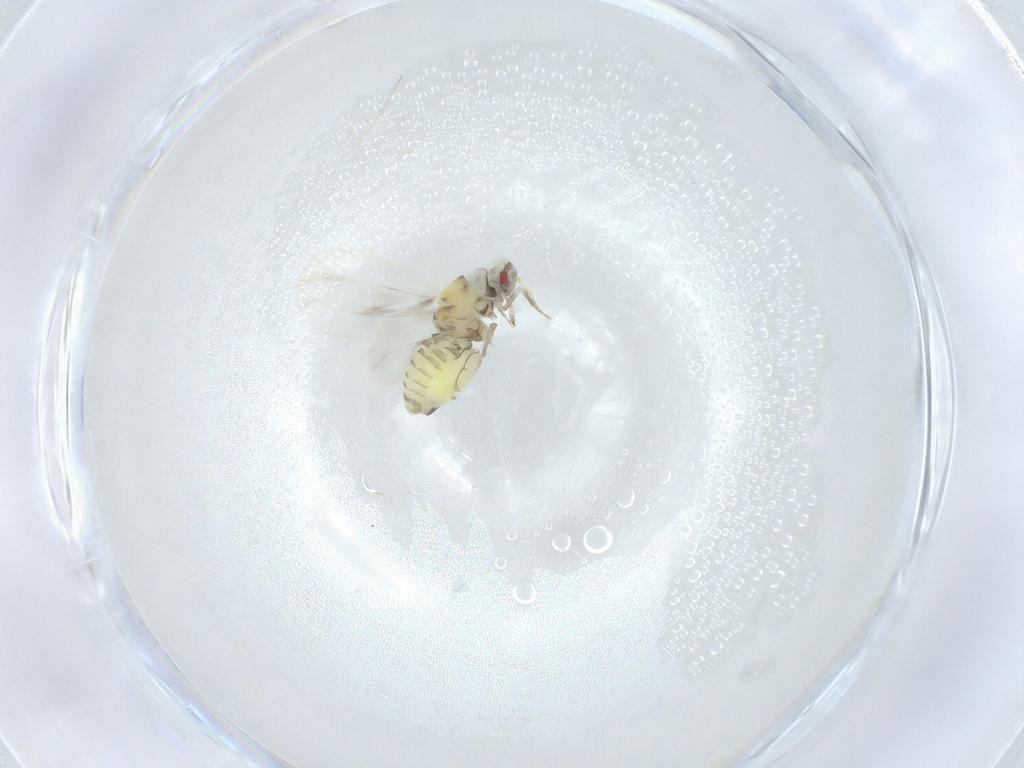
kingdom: Animalia
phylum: Arthropoda
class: Insecta
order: Hemiptera
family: Aleyrodidae
